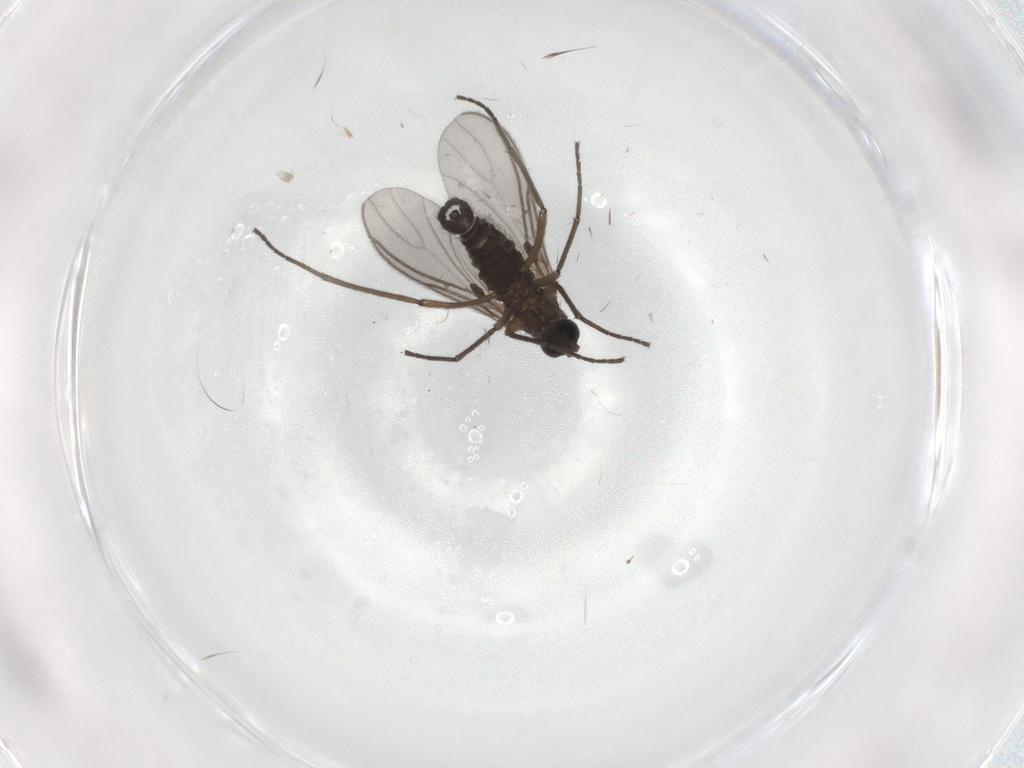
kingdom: Animalia
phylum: Arthropoda
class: Insecta
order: Diptera
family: Sciaridae
